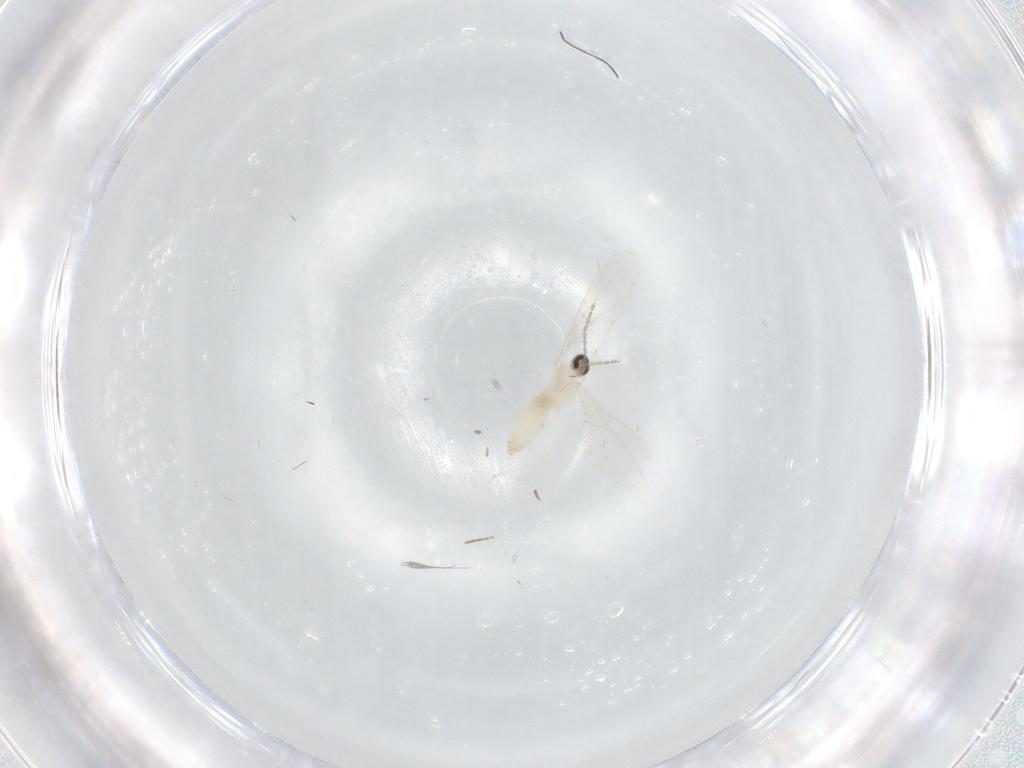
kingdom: Animalia
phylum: Arthropoda
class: Insecta
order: Diptera
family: Chironomidae
